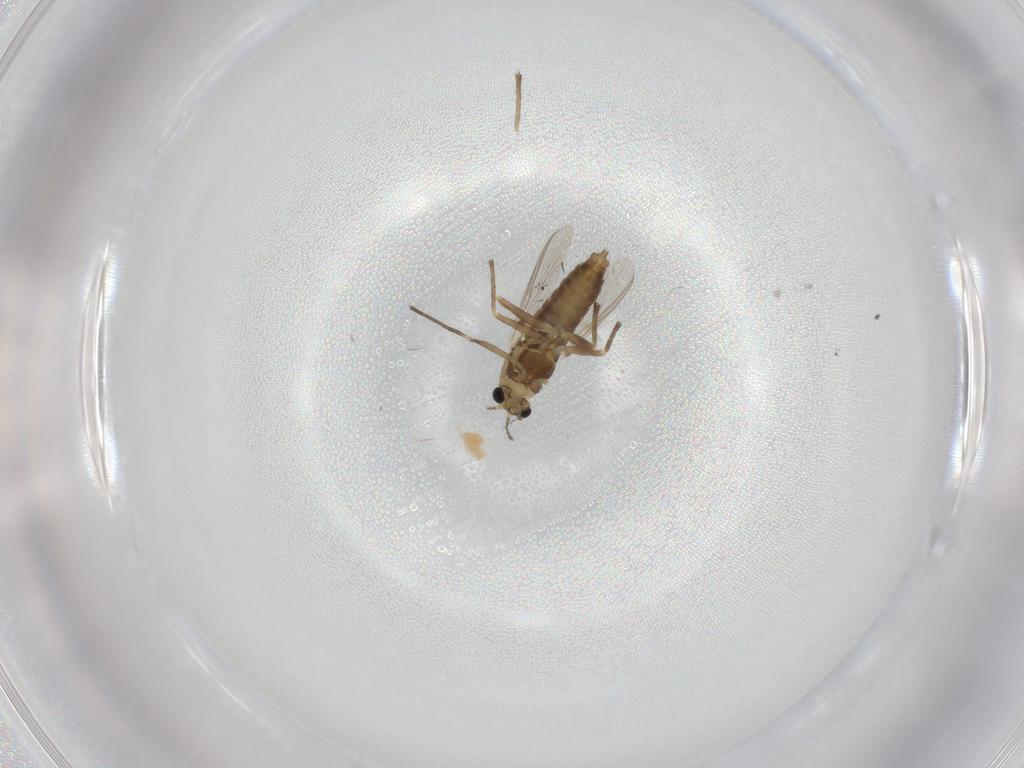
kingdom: Animalia
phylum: Arthropoda
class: Insecta
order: Diptera
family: Chironomidae
